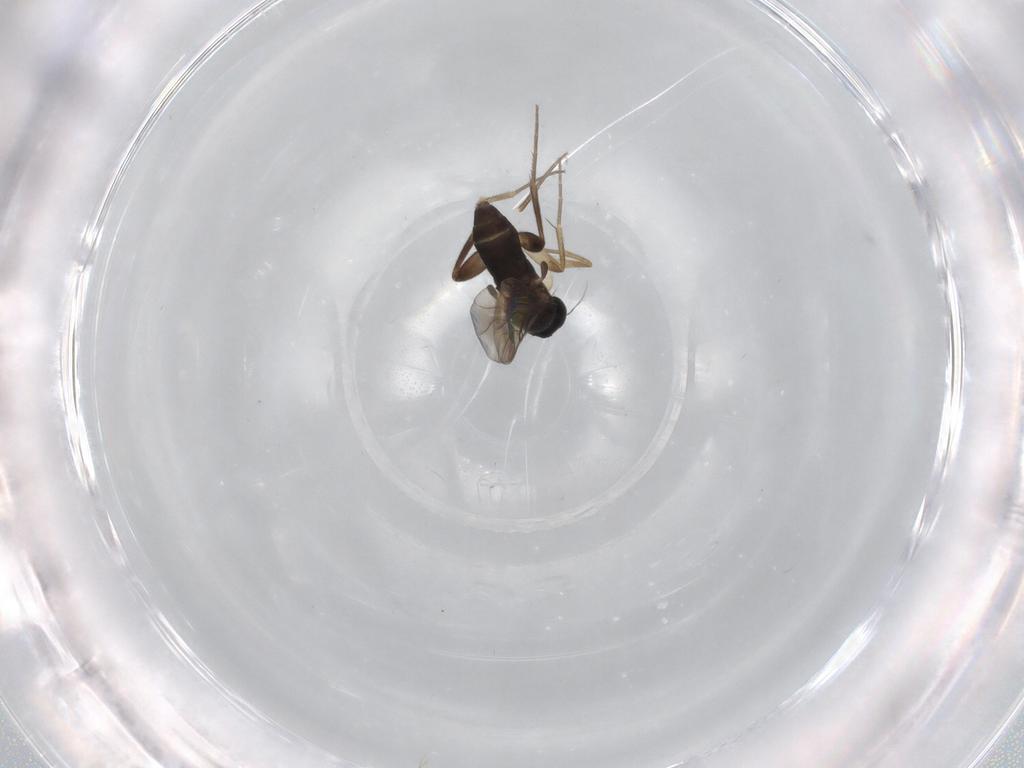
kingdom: Animalia
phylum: Arthropoda
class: Insecta
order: Diptera
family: Phoridae
